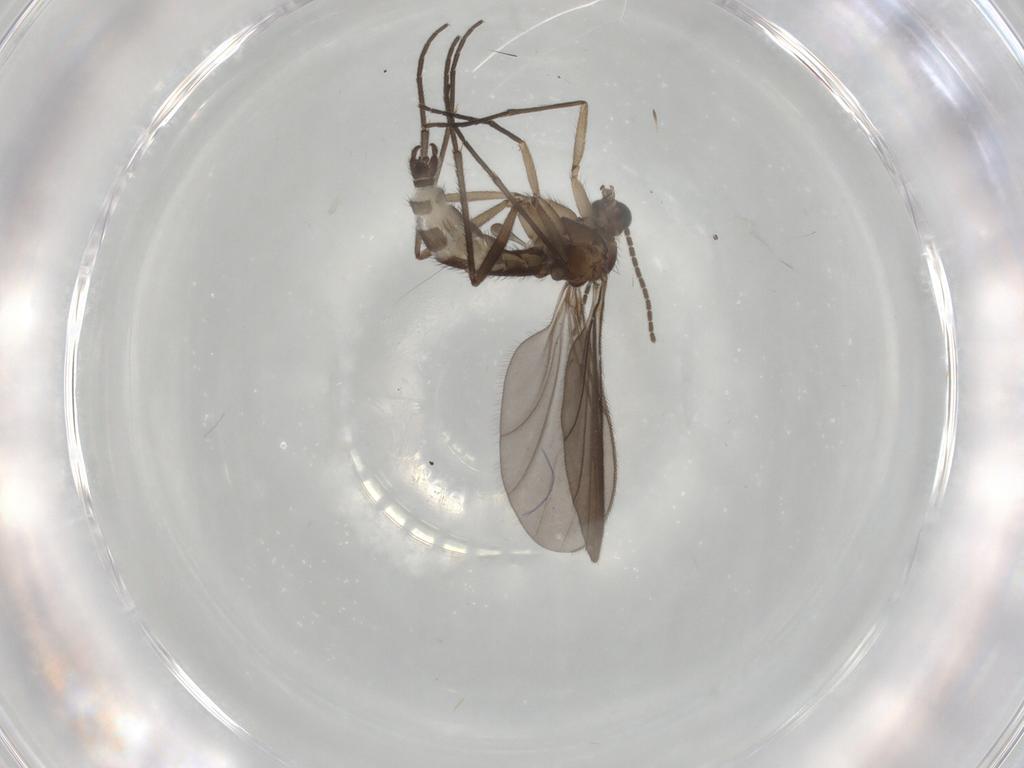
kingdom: Animalia
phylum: Arthropoda
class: Insecta
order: Diptera
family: Sciaridae
